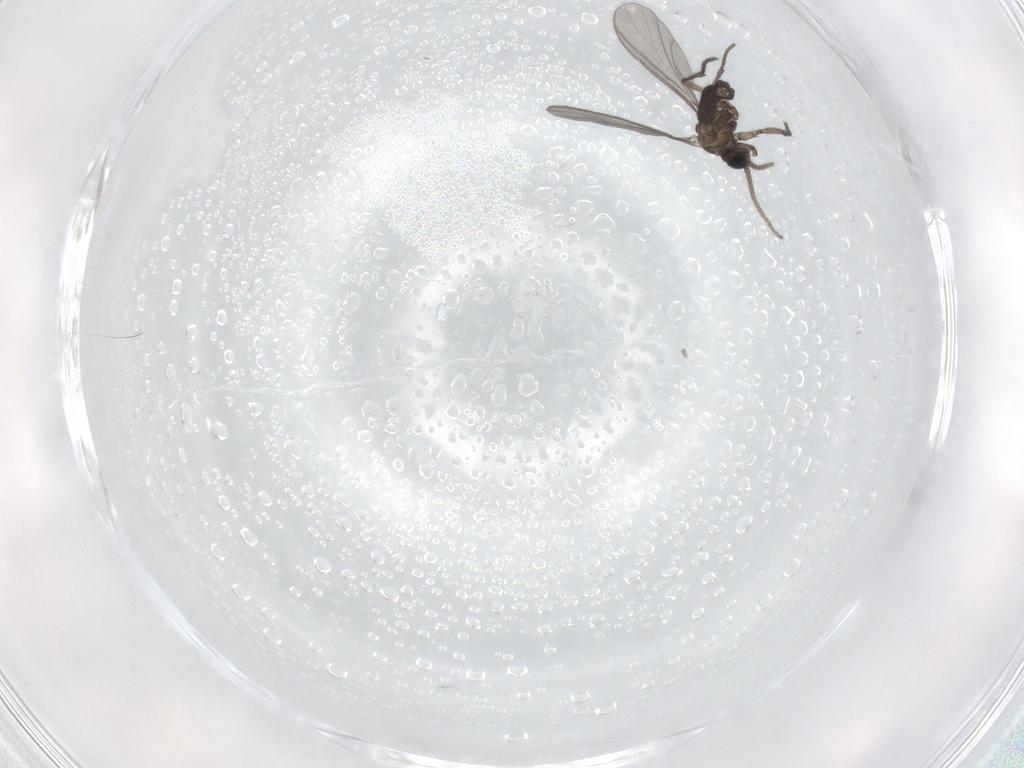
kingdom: Animalia
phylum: Arthropoda
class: Insecta
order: Diptera
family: Sciaridae
